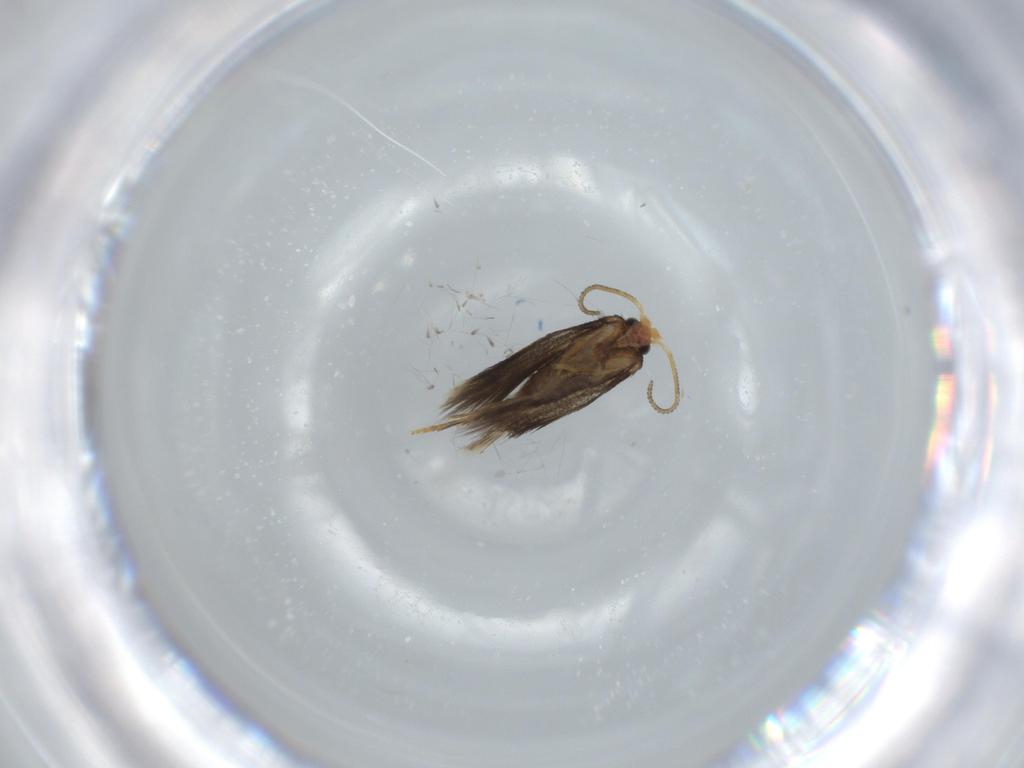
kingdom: Animalia
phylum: Arthropoda
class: Insecta
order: Lepidoptera
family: Nepticulidae
